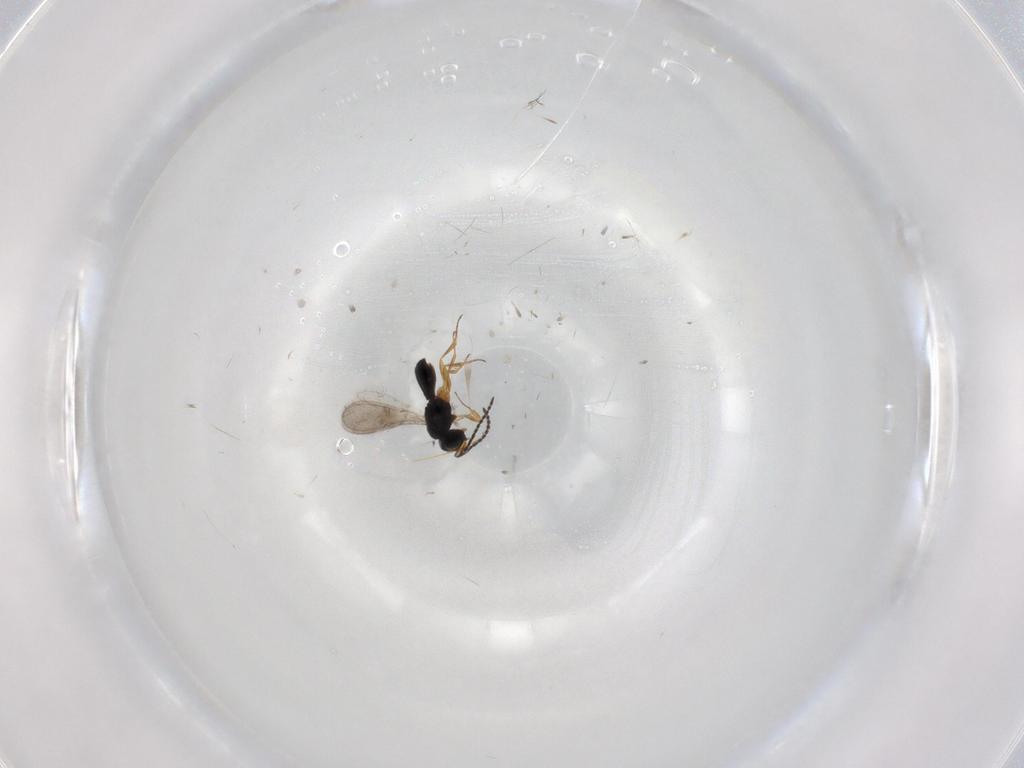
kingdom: Animalia
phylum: Arthropoda
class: Insecta
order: Hymenoptera
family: Scelionidae
